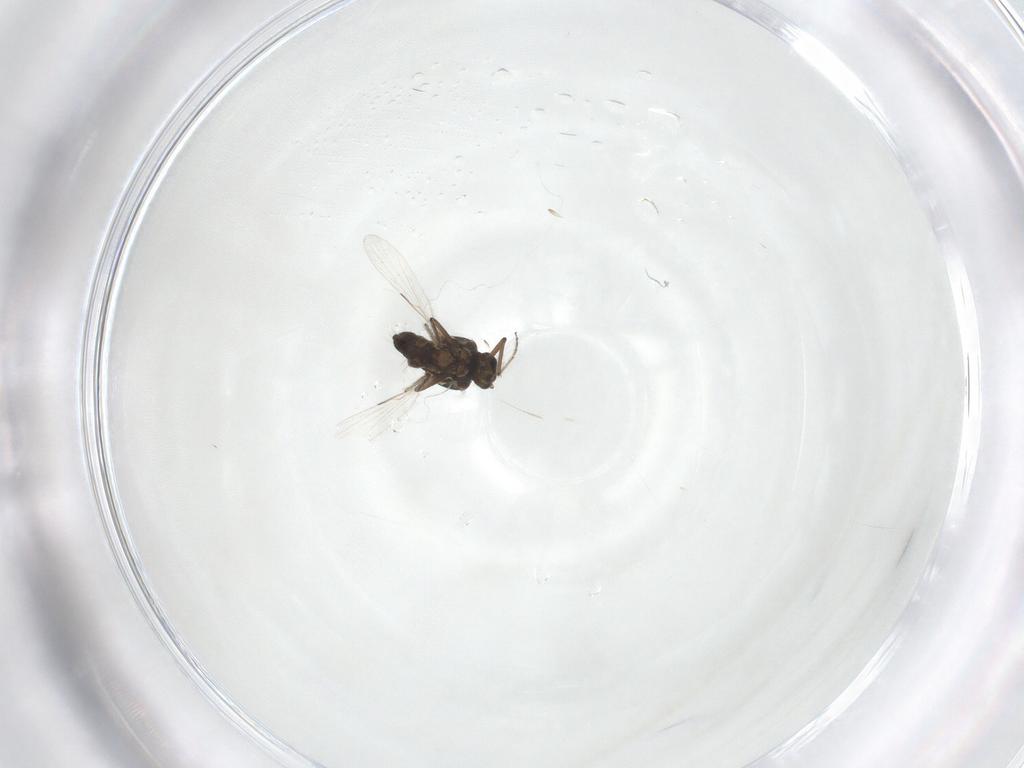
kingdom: Animalia
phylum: Arthropoda
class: Insecta
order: Diptera
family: Ceratopogonidae
